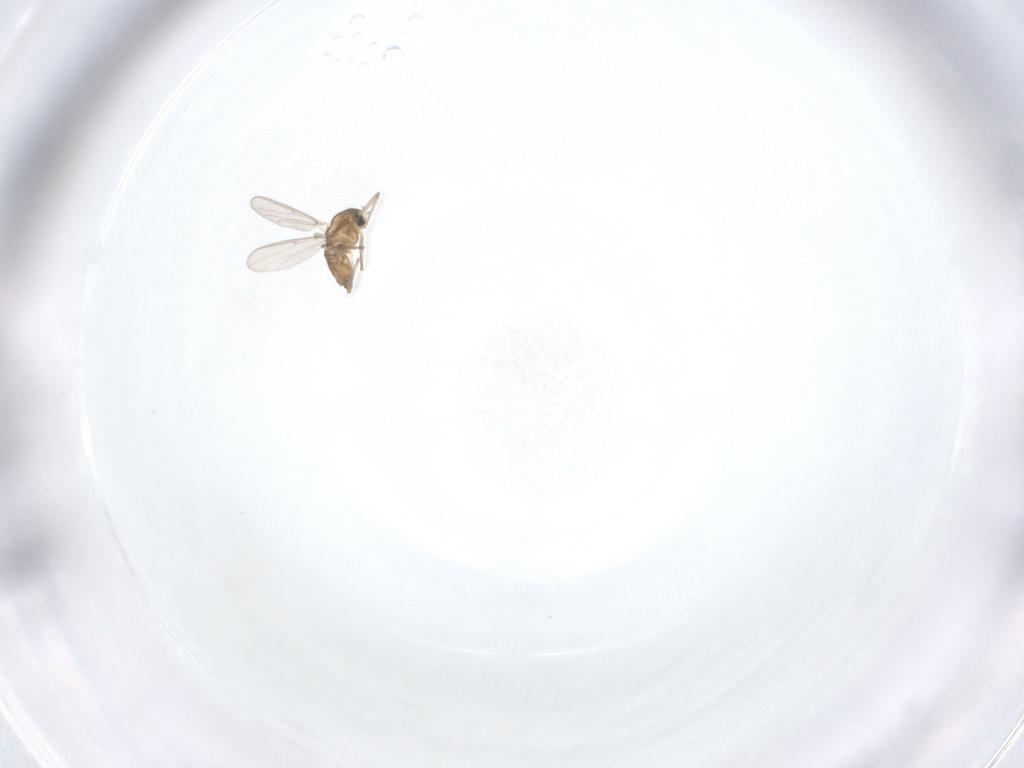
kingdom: Animalia
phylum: Arthropoda
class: Insecta
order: Diptera
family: Chironomidae
